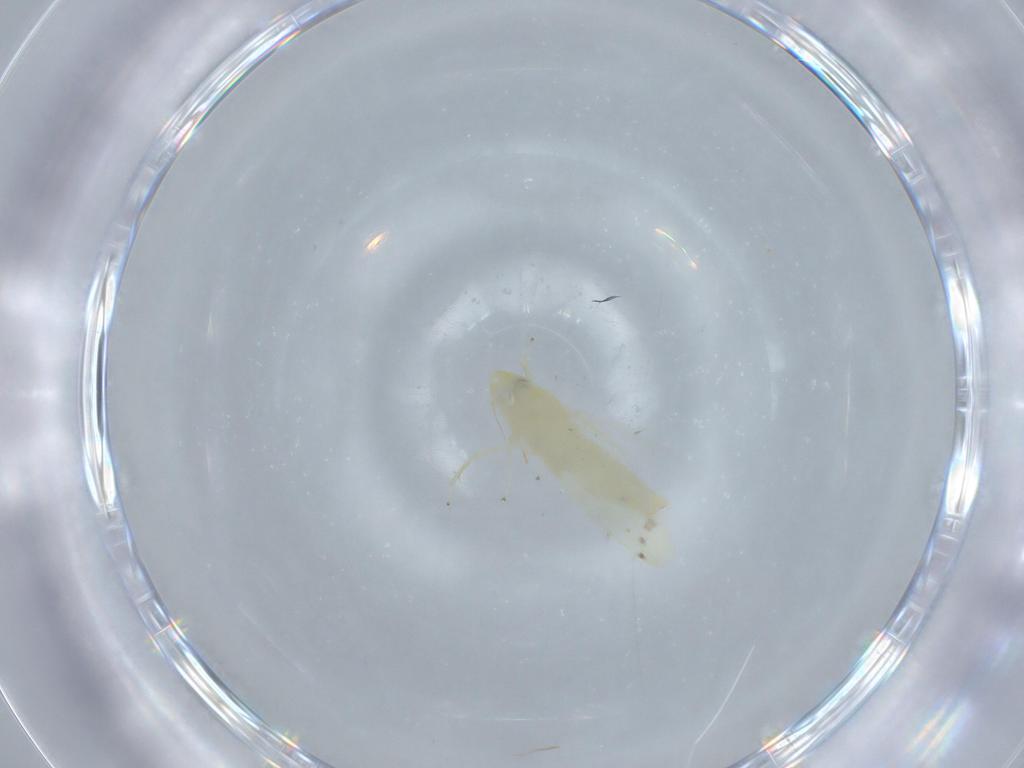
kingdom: Animalia
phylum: Arthropoda
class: Insecta
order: Hemiptera
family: Cicadellidae
